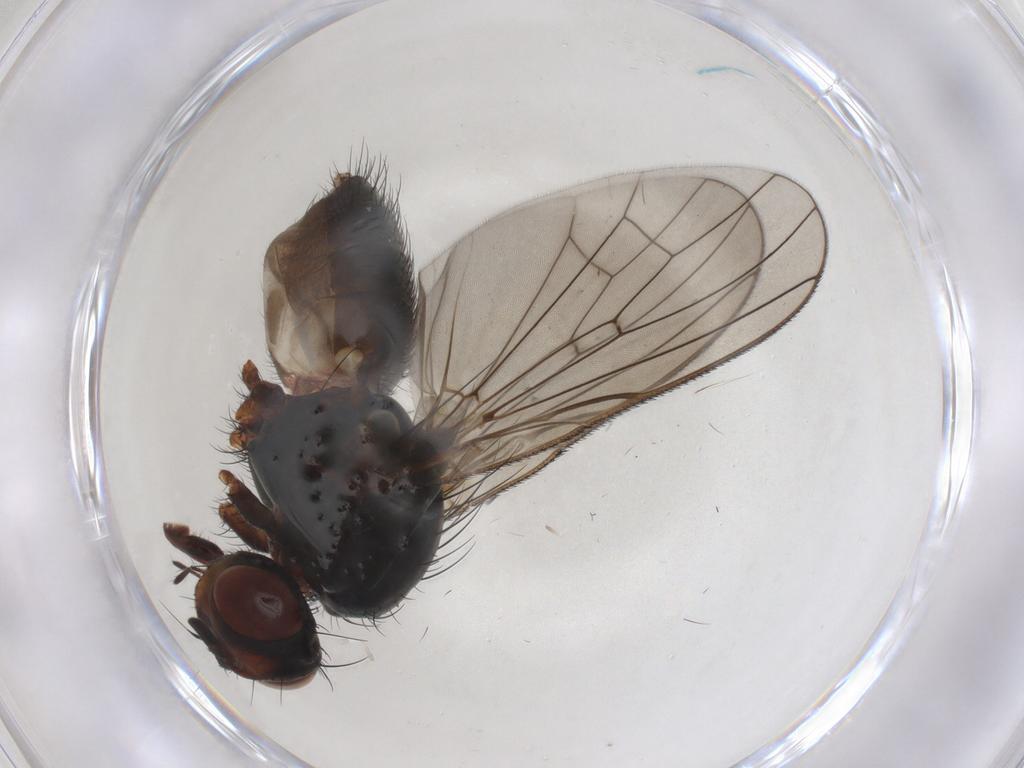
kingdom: Animalia
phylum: Arthropoda
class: Insecta
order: Diptera
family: Anthomyiidae
